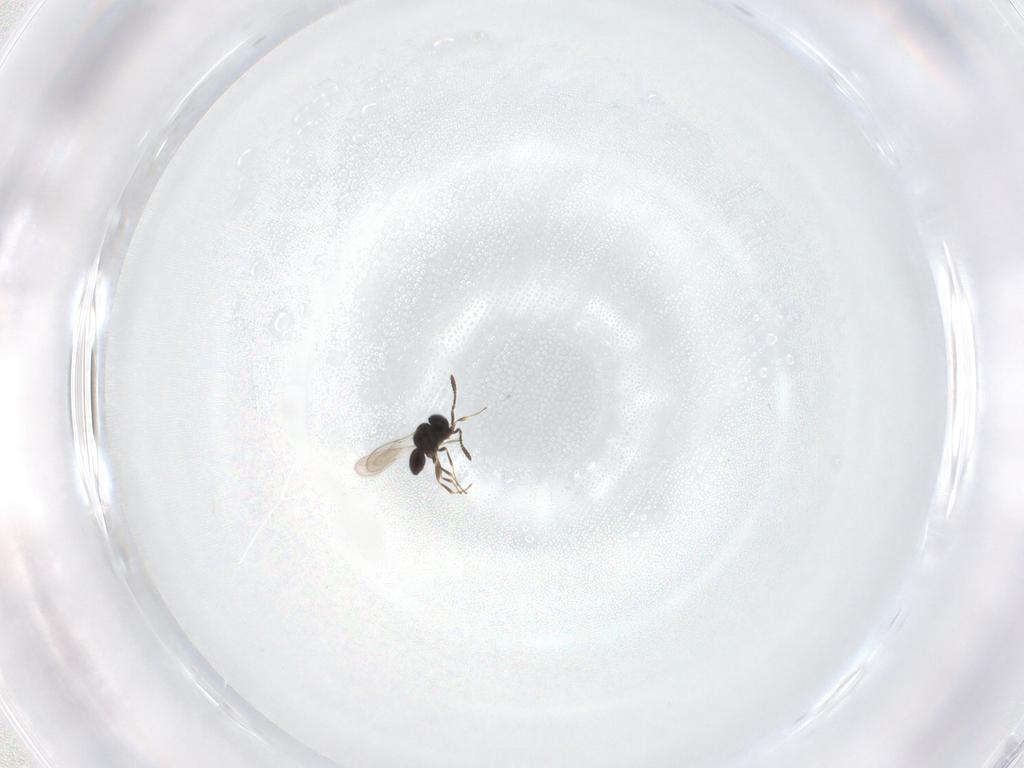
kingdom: Animalia
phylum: Arthropoda
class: Insecta
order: Hymenoptera
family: Scelionidae
